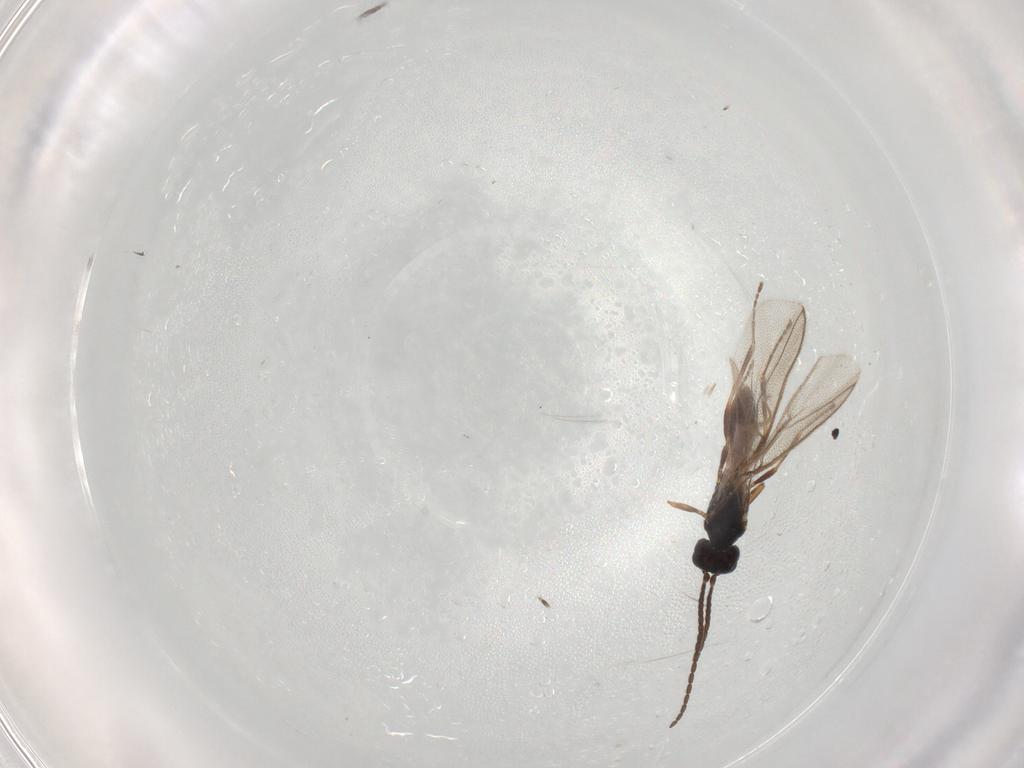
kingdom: Animalia
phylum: Arthropoda
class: Insecta
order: Hymenoptera
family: Braconidae
